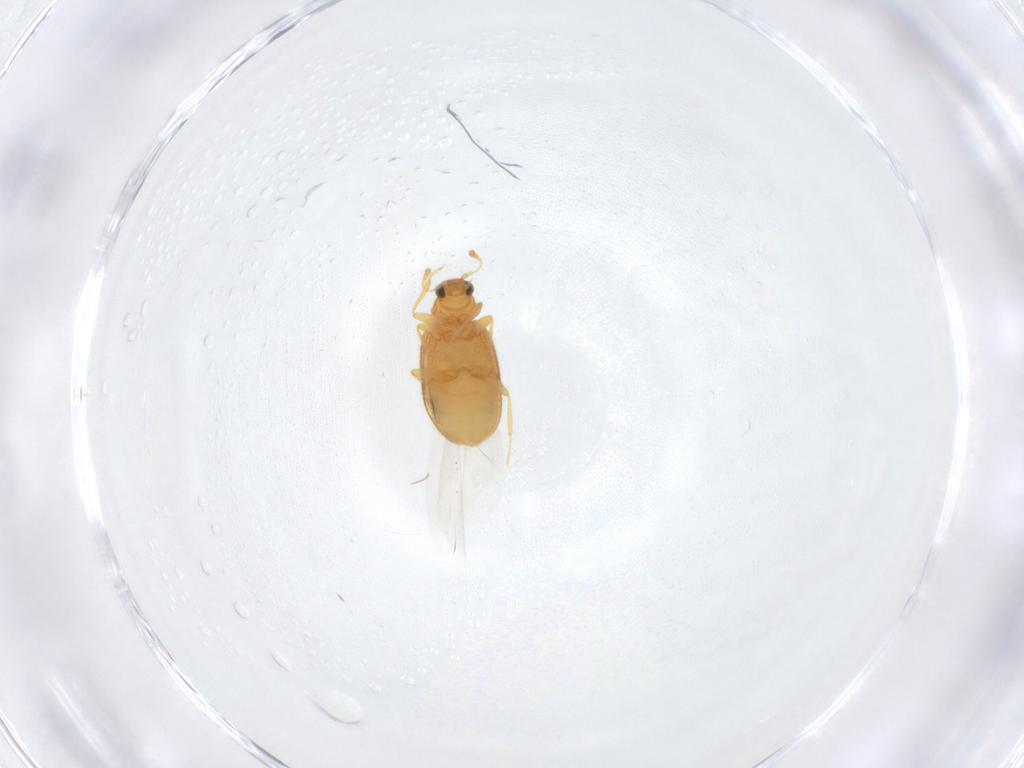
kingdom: Animalia
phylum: Arthropoda
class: Insecta
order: Coleoptera
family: Latridiidae
